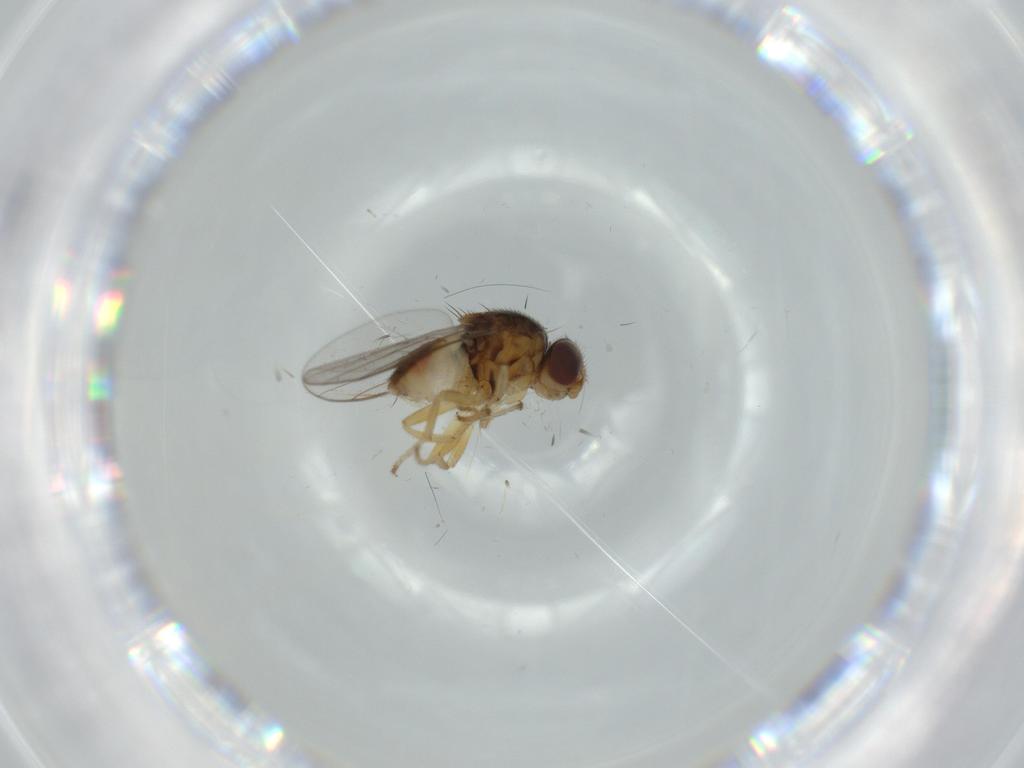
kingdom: Animalia
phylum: Arthropoda
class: Insecta
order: Diptera
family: Chloropidae
